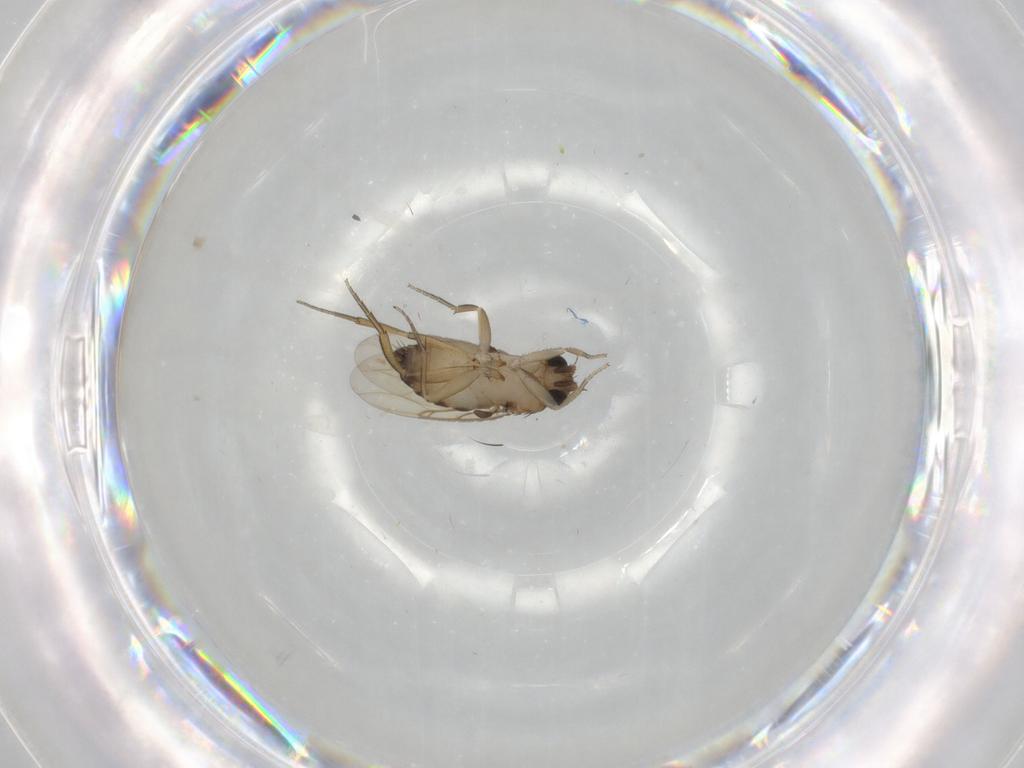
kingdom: Animalia
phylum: Arthropoda
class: Insecta
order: Diptera
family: Phoridae
